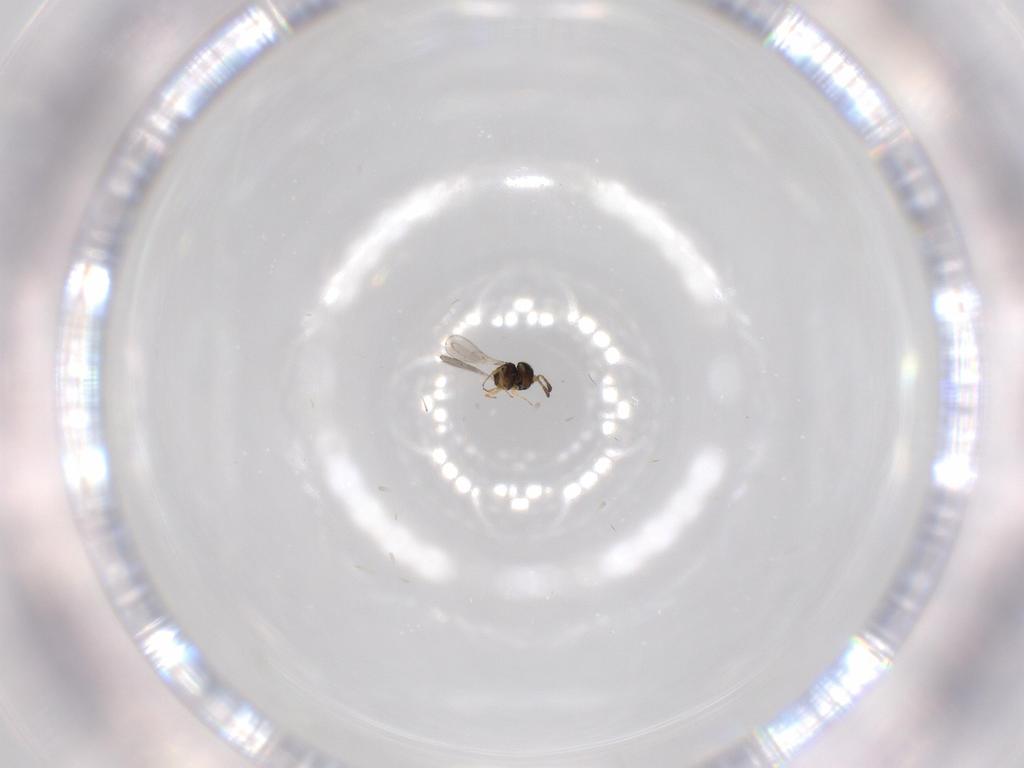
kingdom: Animalia
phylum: Arthropoda
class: Insecta
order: Hymenoptera
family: Scelionidae
